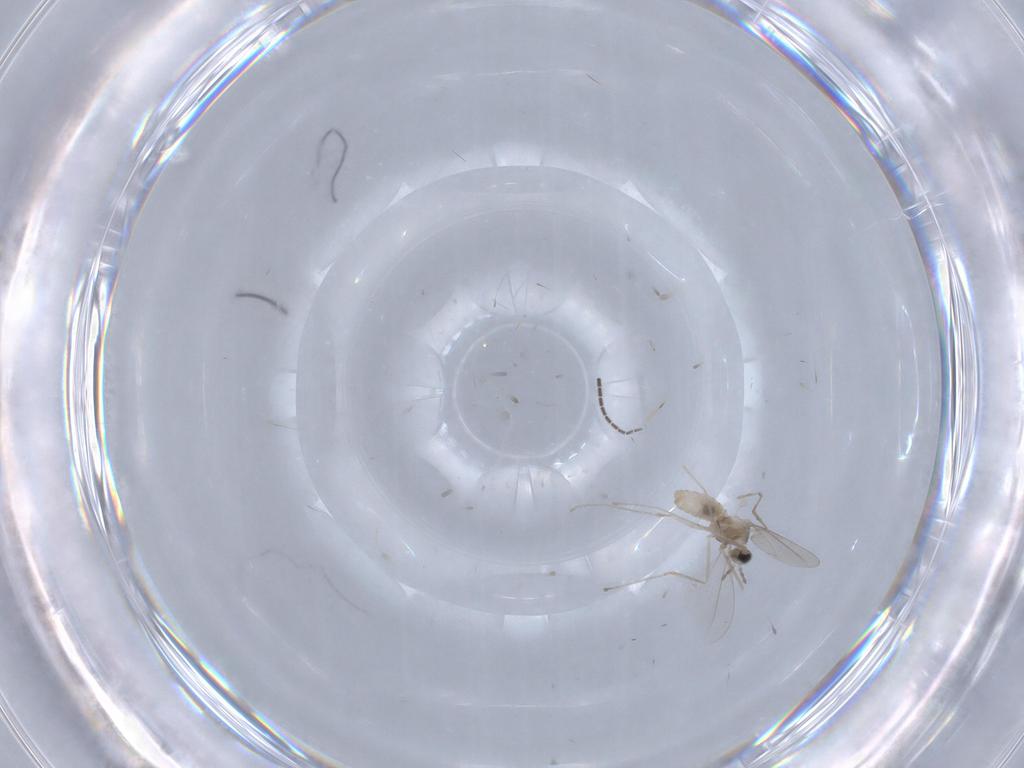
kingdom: Animalia
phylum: Arthropoda
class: Insecta
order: Diptera
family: Sciaridae
